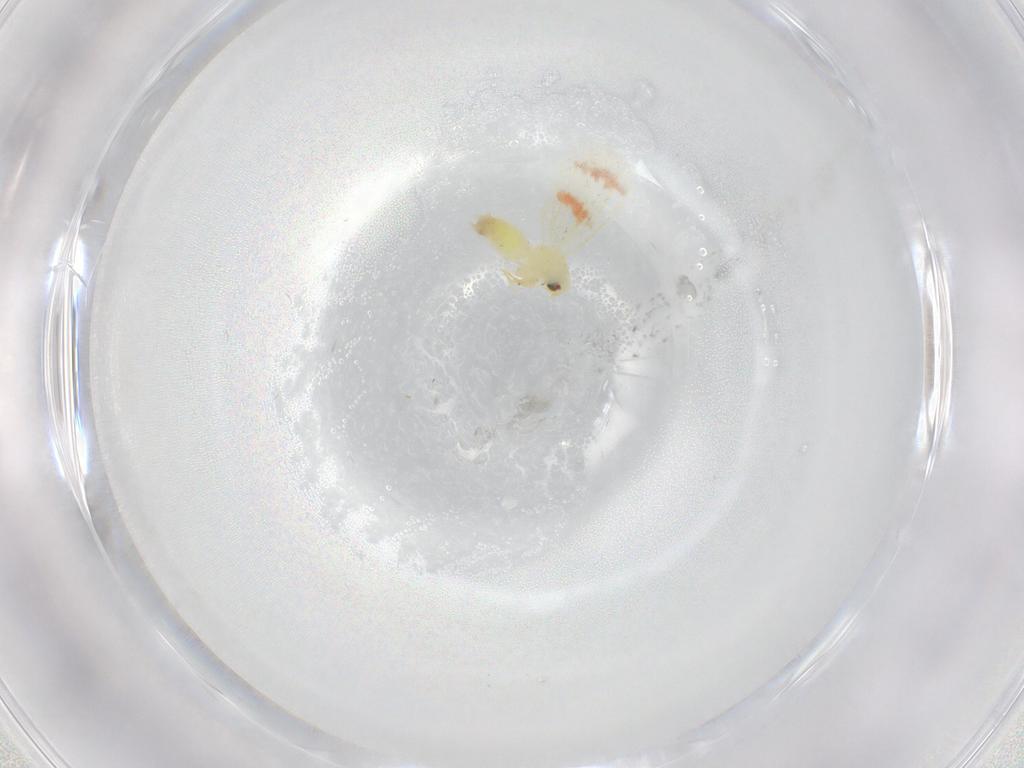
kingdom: Animalia
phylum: Arthropoda
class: Insecta
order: Hemiptera
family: Aleyrodidae
